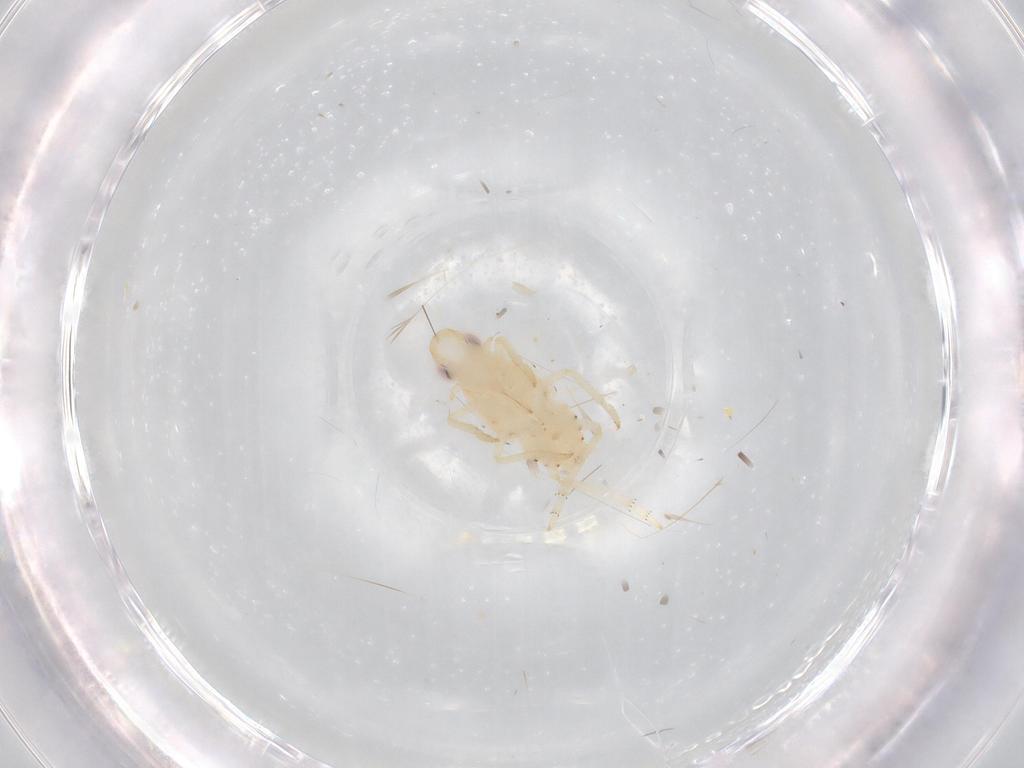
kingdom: Animalia
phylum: Arthropoda
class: Insecta
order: Hemiptera
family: Tropiduchidae
